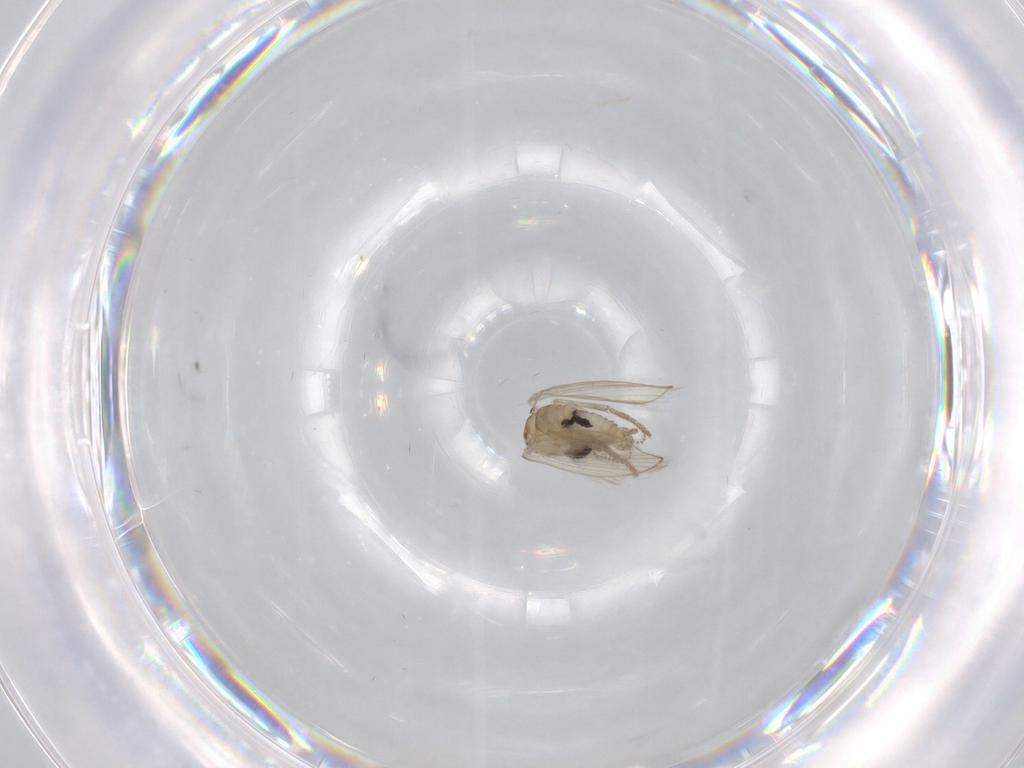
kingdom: Animalia
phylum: Arthropoda
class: Insecta
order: Diptera
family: Psychodidae
